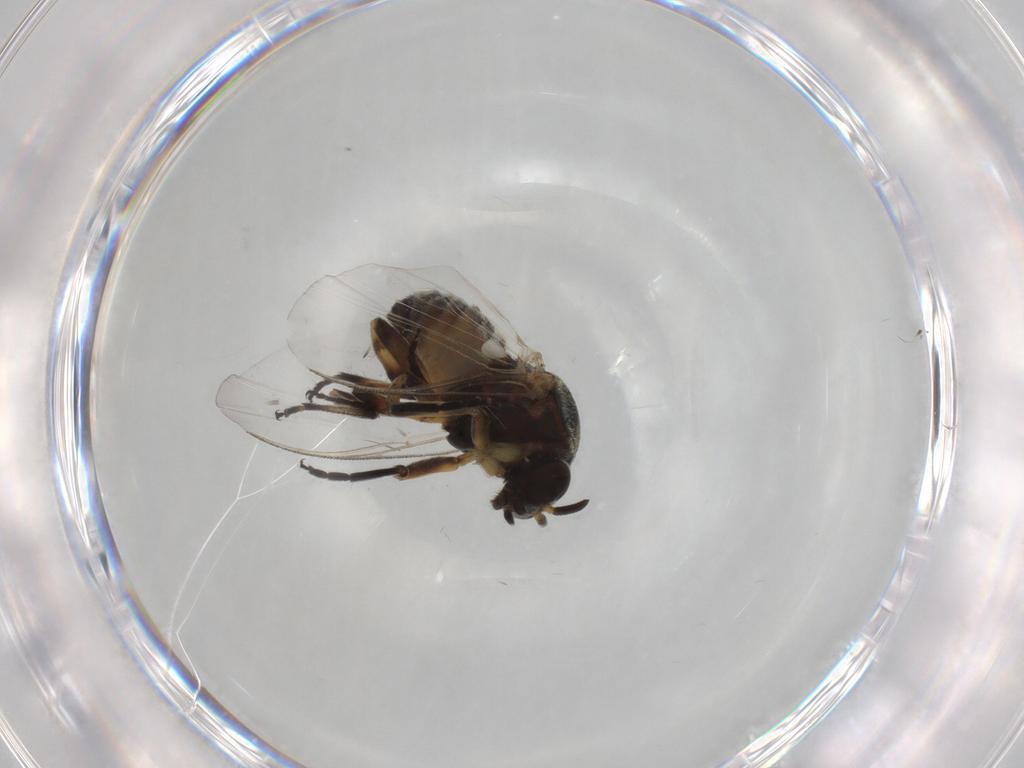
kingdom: Animalia
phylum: Arthropoda
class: Insecta
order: Diptera
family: Simuliidae
